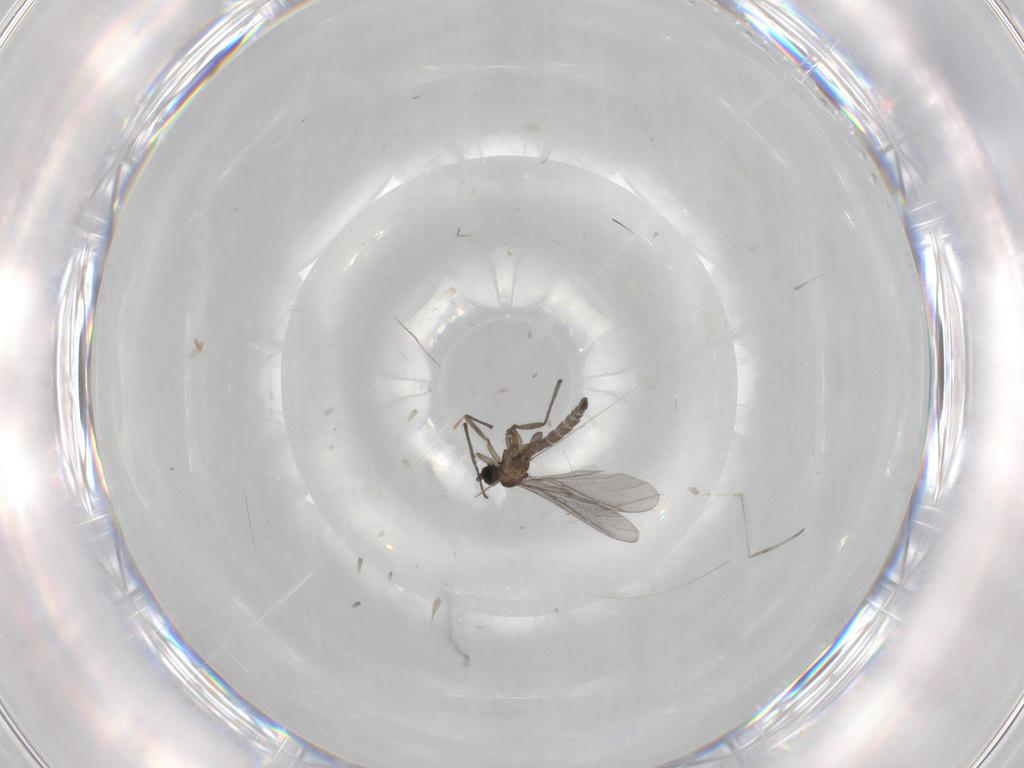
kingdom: Animalia
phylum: Arthropoda
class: Insecta
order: Diptera
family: Sciaridae
